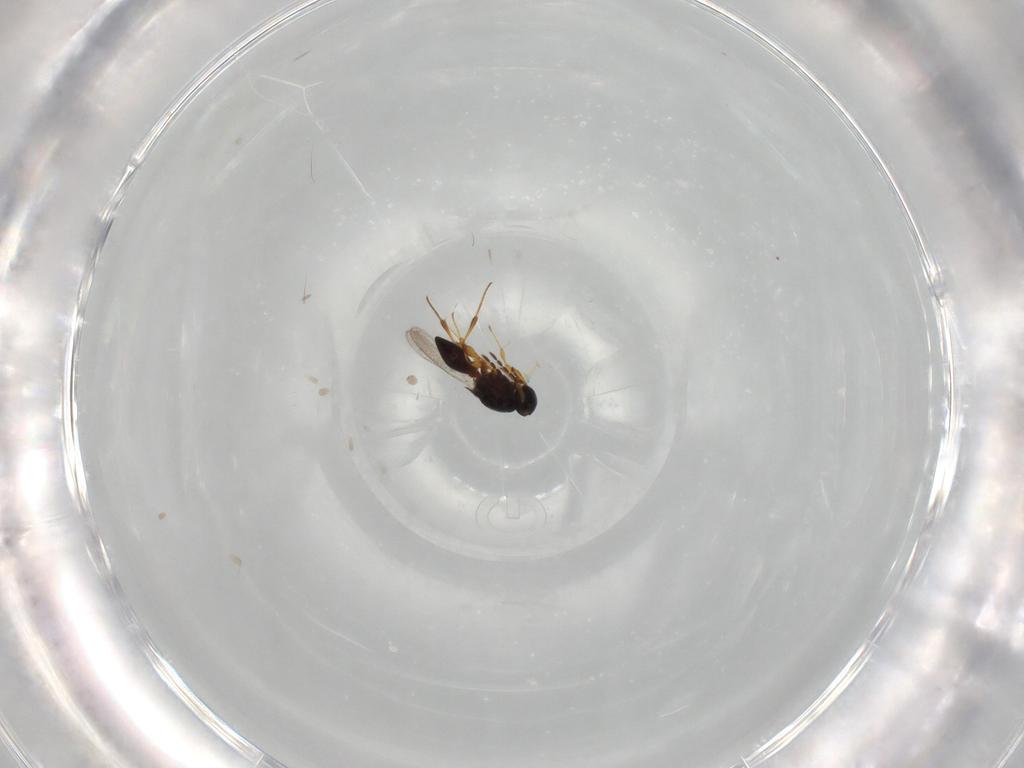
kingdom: Animalia
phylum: Arthropoda
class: Insecta
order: Hymenoptera
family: Platygastridae
